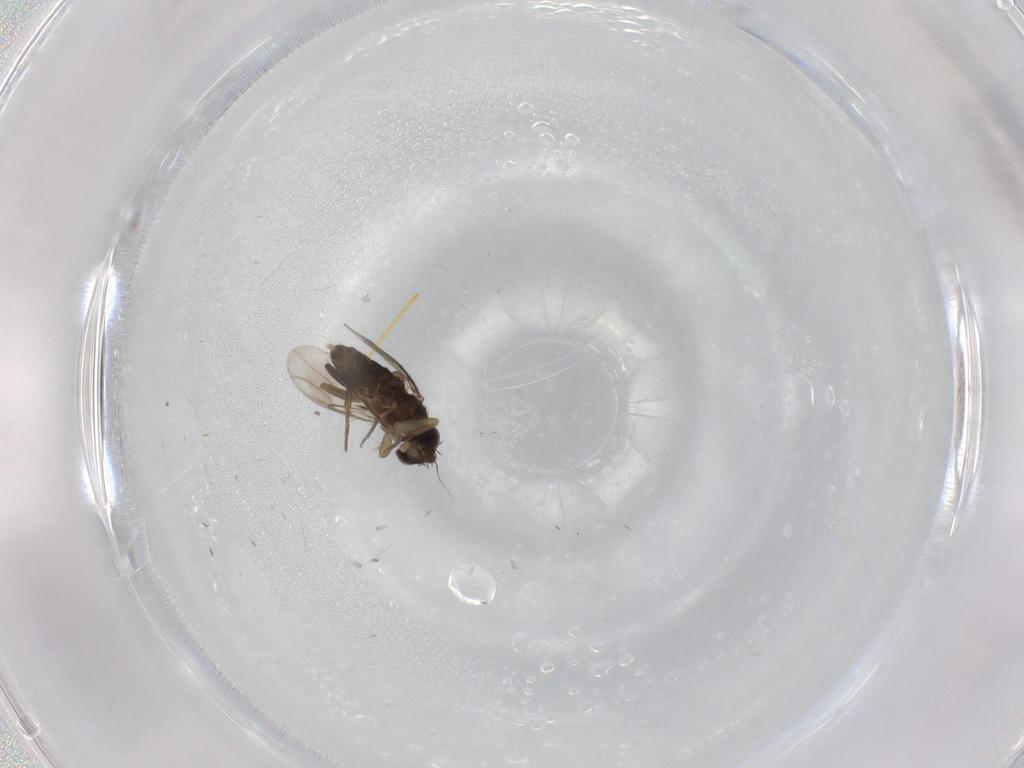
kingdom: Animalia
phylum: Arthropoda
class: Insecta
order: Diptera
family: Phoridae
